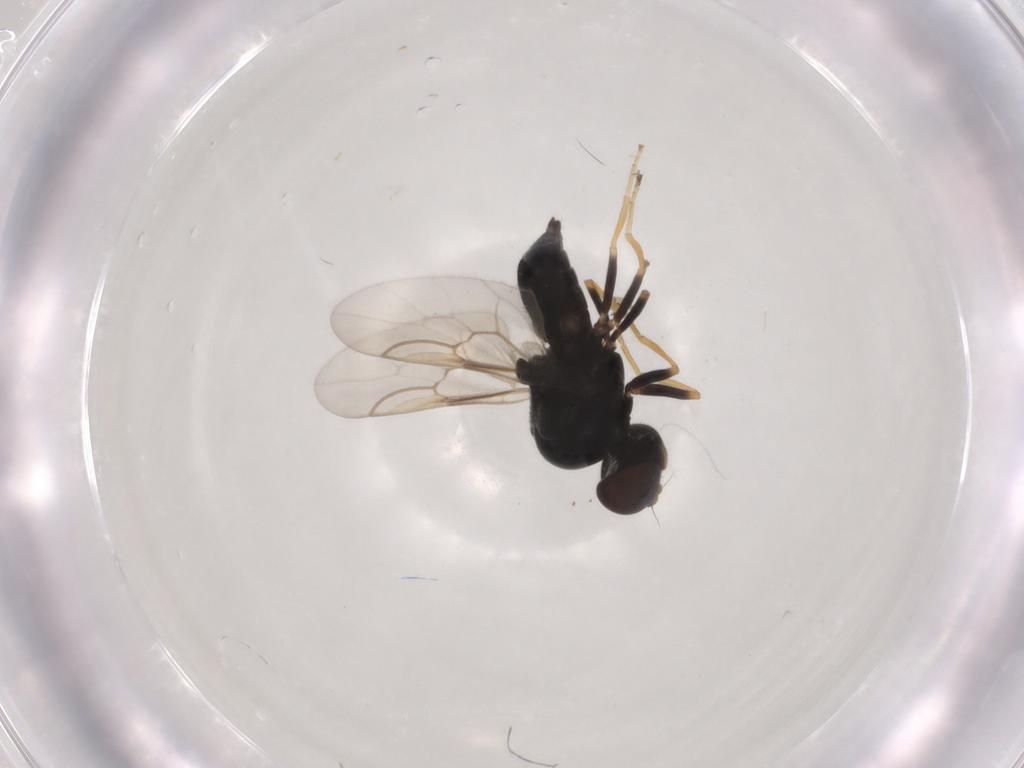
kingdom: Animalia
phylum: Arthropoda
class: Insecta
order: Diptera
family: Stratiomyidae
